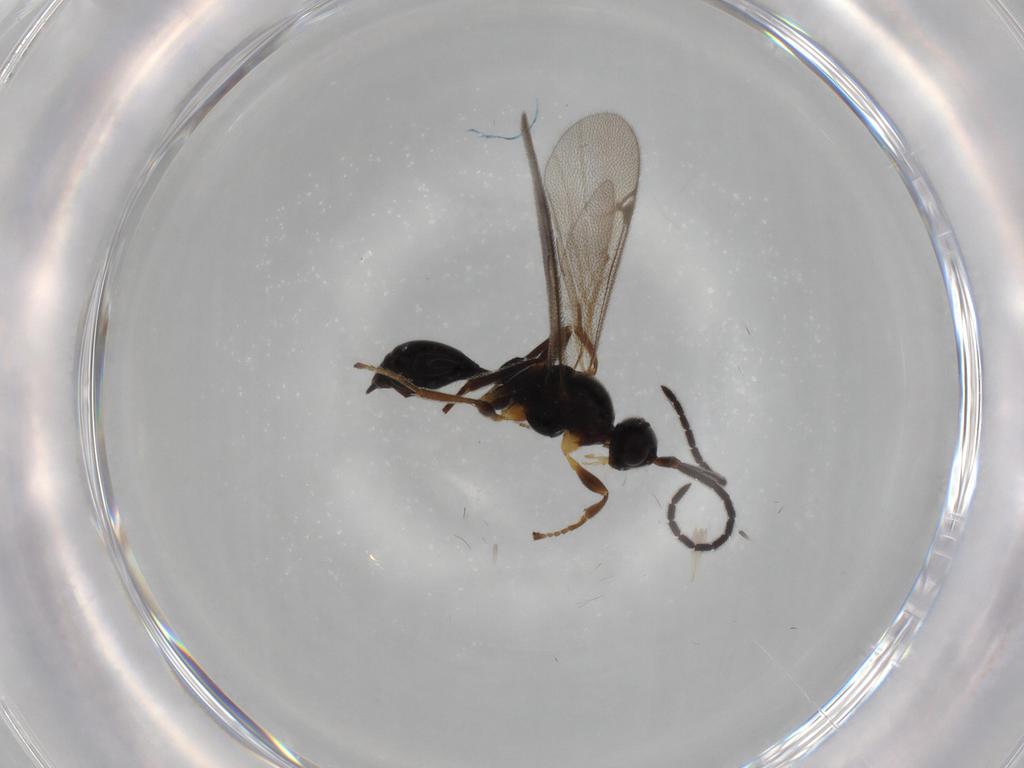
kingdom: Animalia
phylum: Arthropoda
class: Insecta
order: Hymenoptera
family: Proctotrupidae
